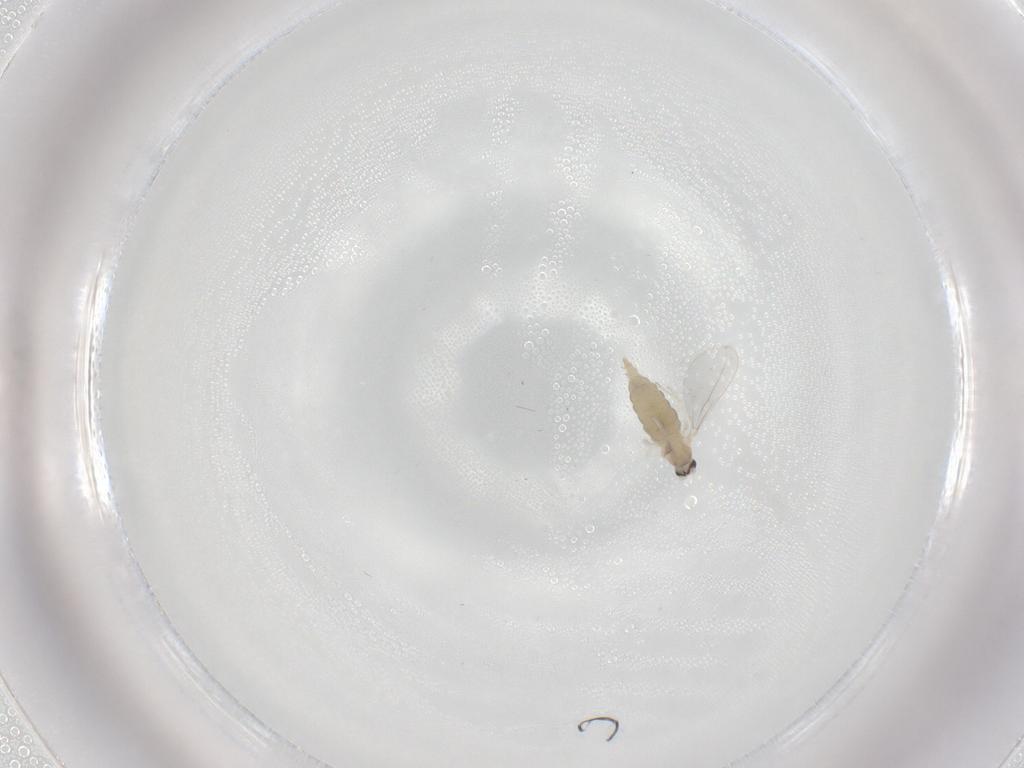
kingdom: Animalia
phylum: Arthropoda
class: Insecta
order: Diptera
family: Cecidomyiidae
